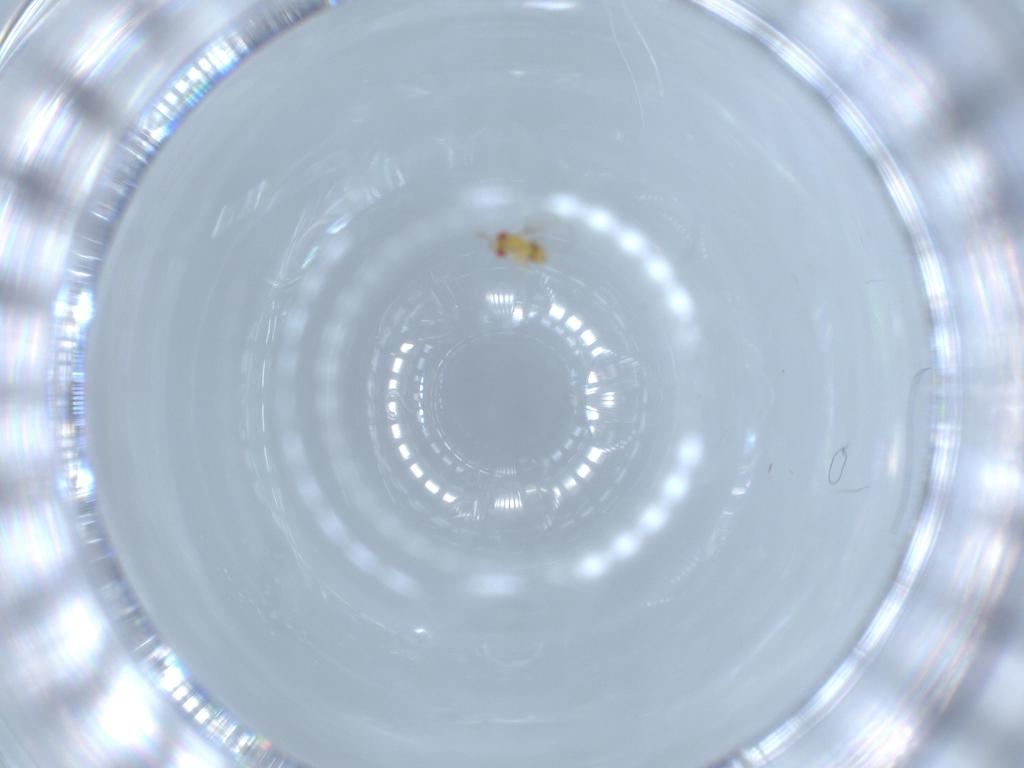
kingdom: Animalia
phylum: Arthropoda
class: Insecta
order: Hymenoptera
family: Trichogrammatidae
